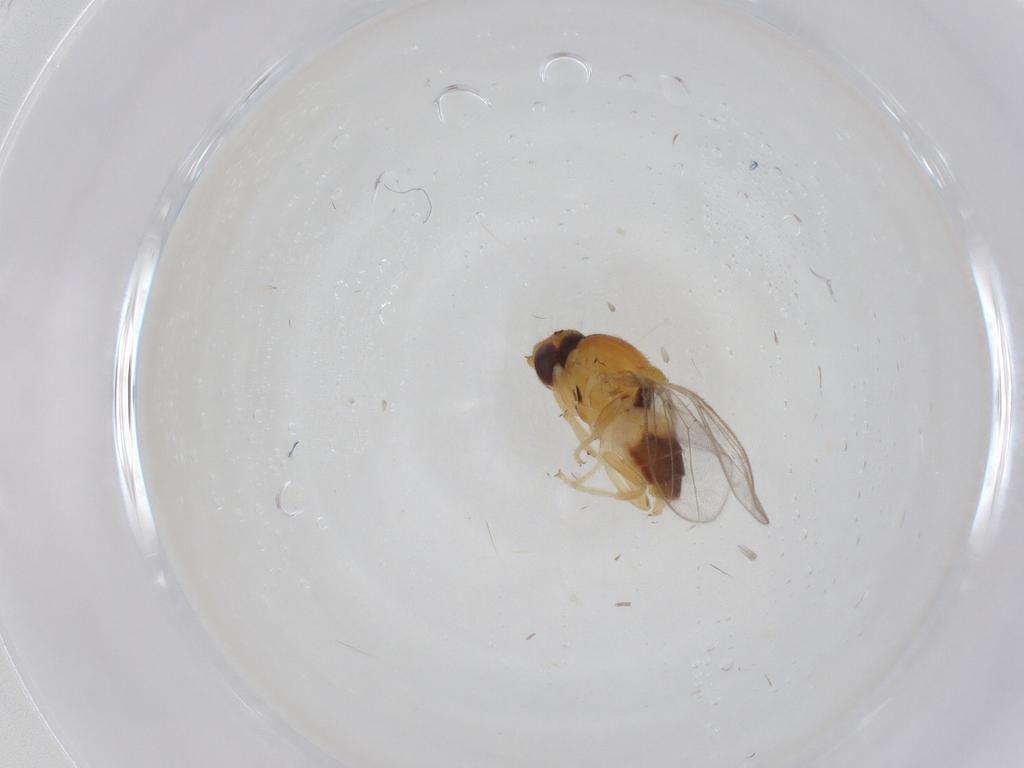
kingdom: Animalia
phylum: Arthropoda
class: Insecta
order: Diptera
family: Chloropidae
